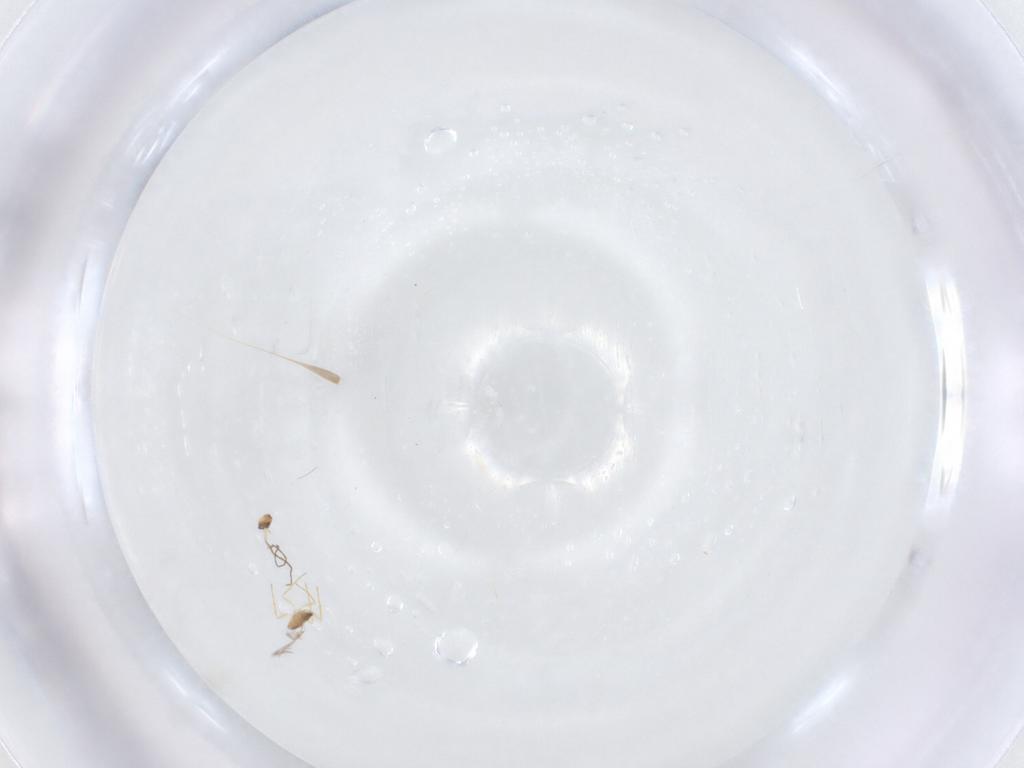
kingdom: Animalia
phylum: Arthropoda
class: Insecta
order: Hymenoptera
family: Mymaridae
